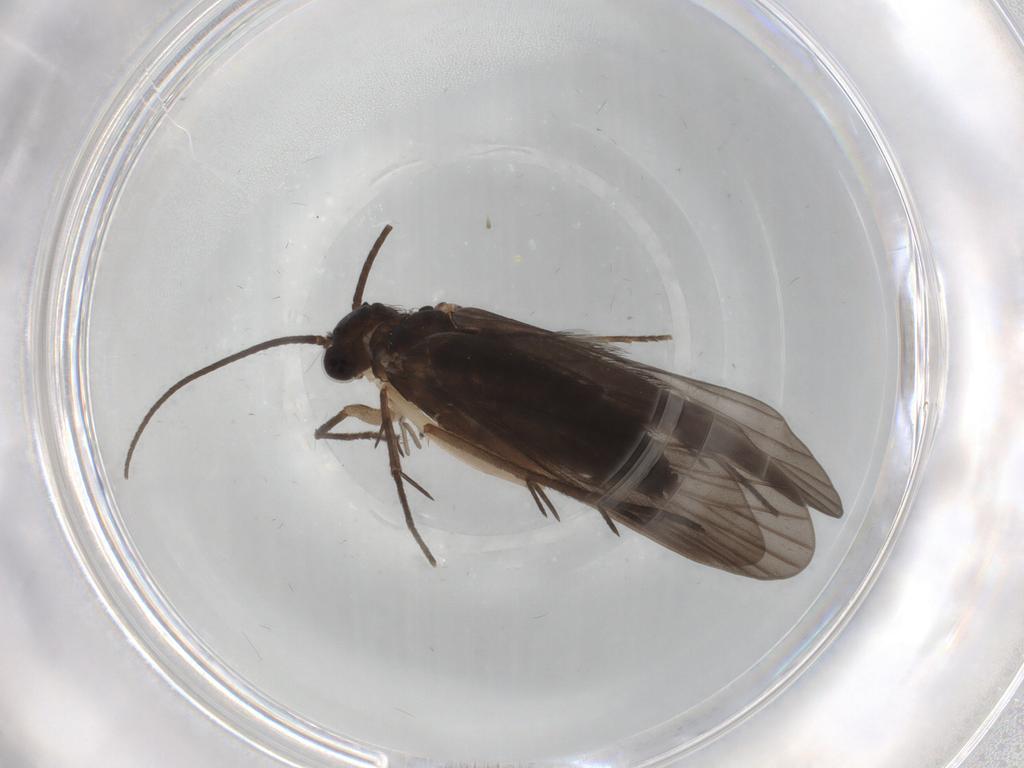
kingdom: Animalia
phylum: Arthropoda
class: Insecta
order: Trichoptera
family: Philopotamidae
